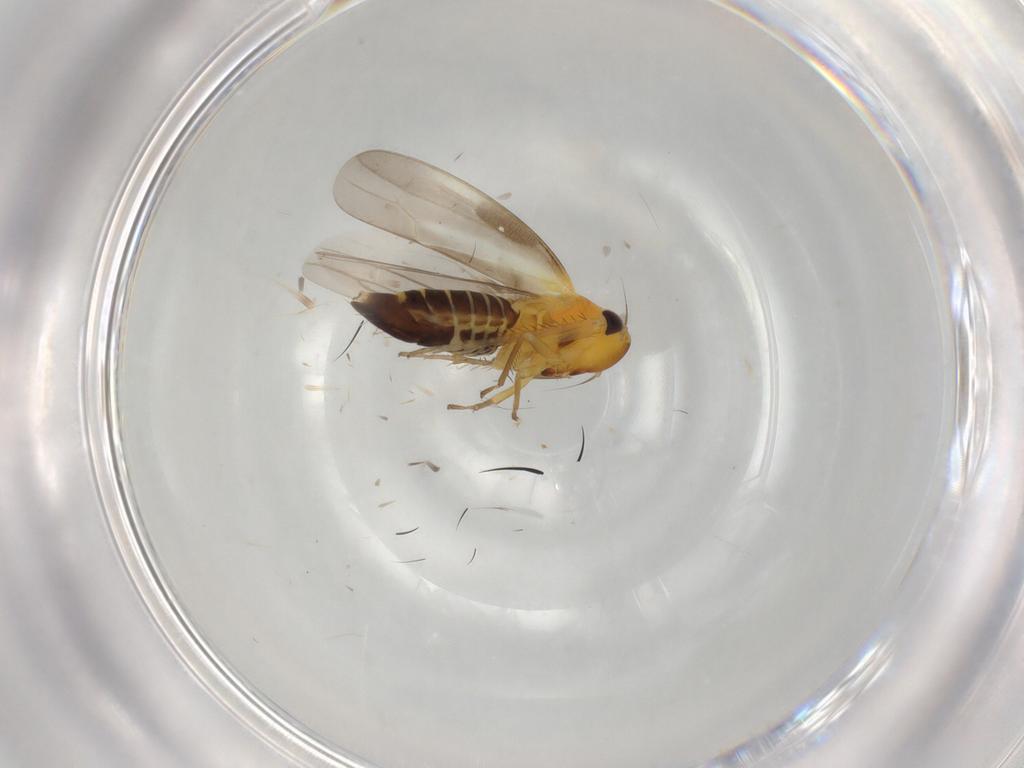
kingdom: Animalia
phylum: Arthropoda
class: Insecta
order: Hemiptera
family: Cicadellidae
